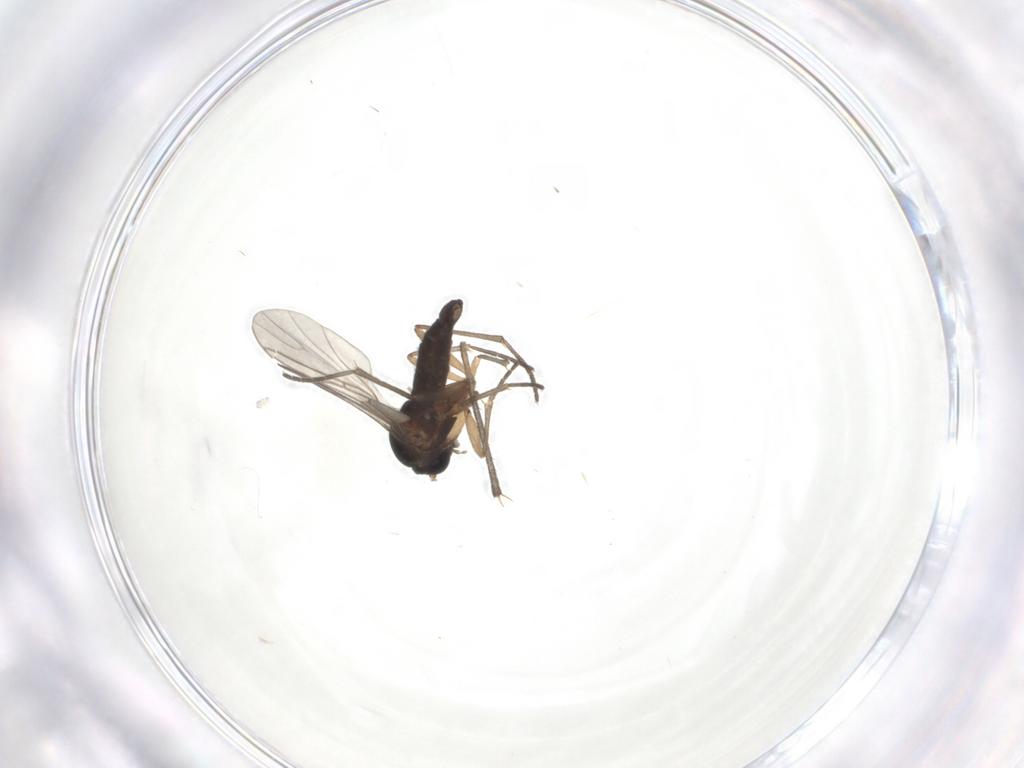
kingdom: Animalia
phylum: Arthropoda
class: Insecta
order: Diptera
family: Sciaridae
